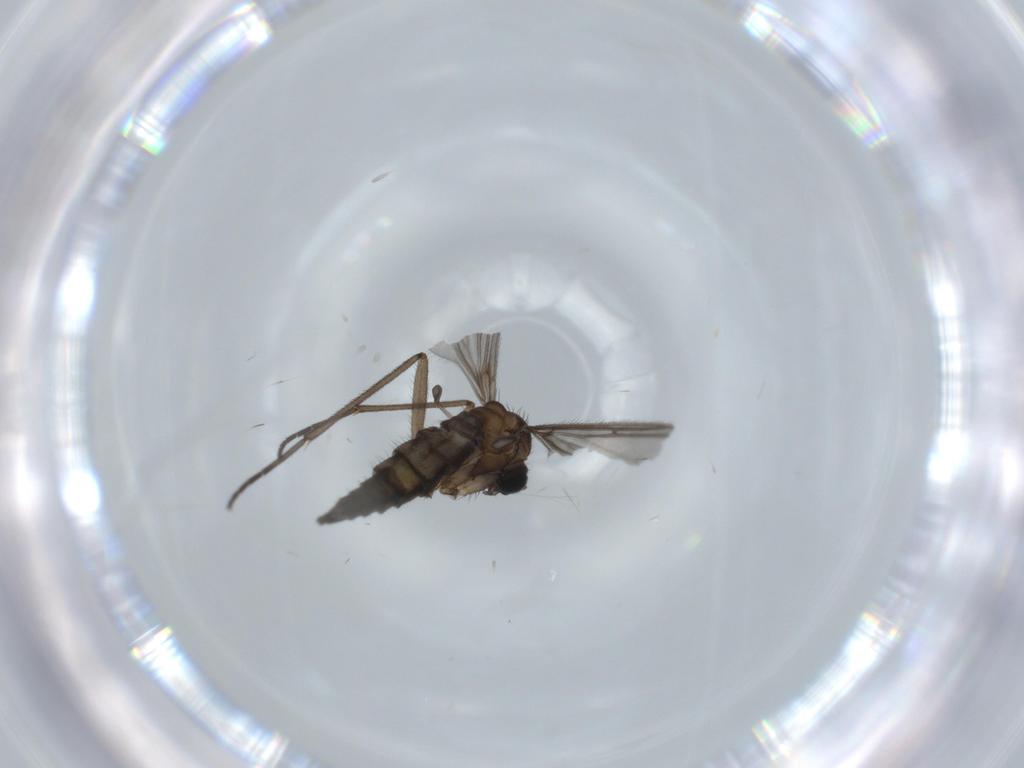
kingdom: Animalia
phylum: Arthropoda
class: Insecta
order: Diptera
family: Sciaridae
